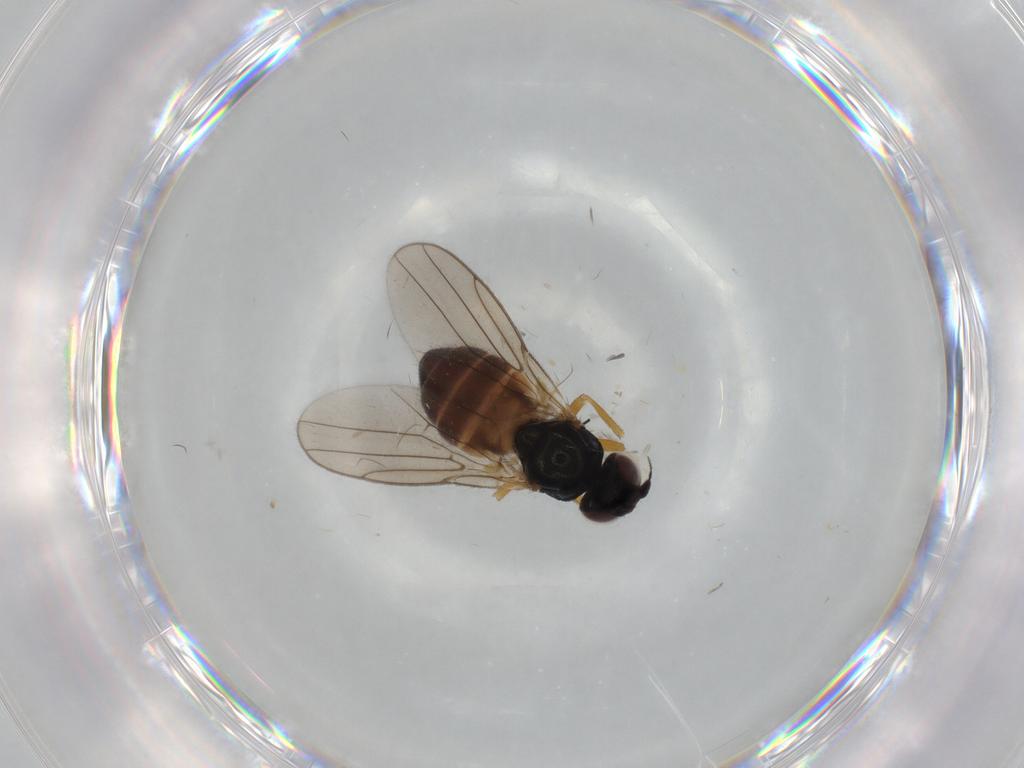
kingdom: Animalia
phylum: Arthropoda
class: Insecta
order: Diptera
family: Chloropidae
